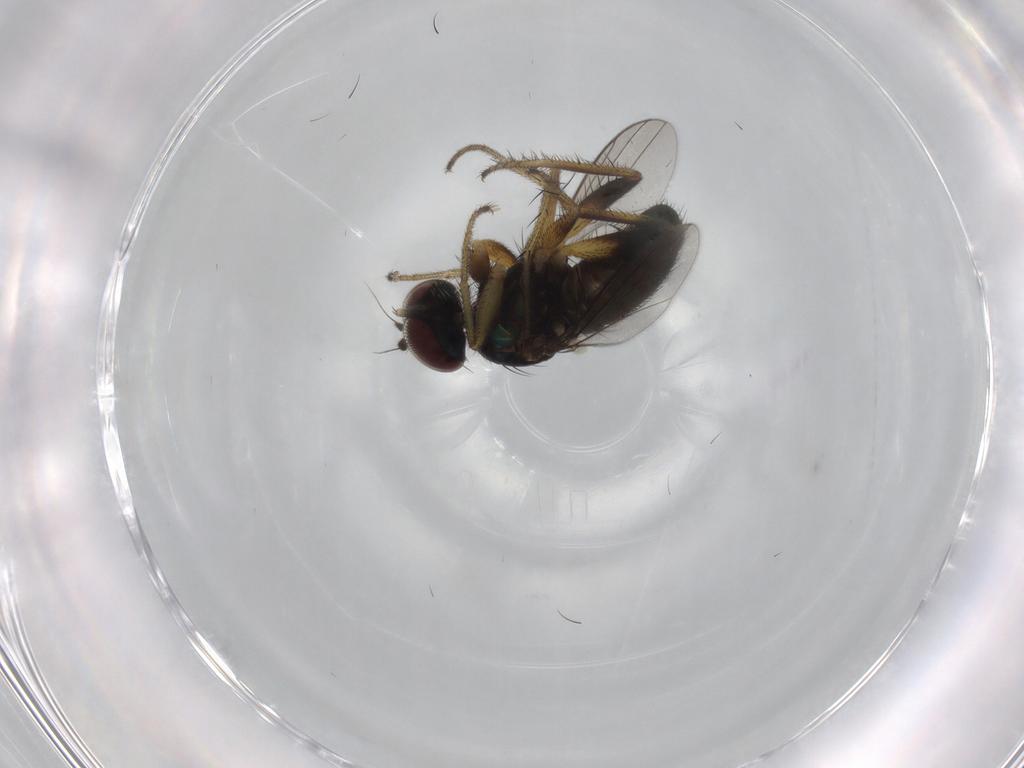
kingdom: Animalia
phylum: Arthropoda
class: Insecta
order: Diptera
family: Dolichopodidae
